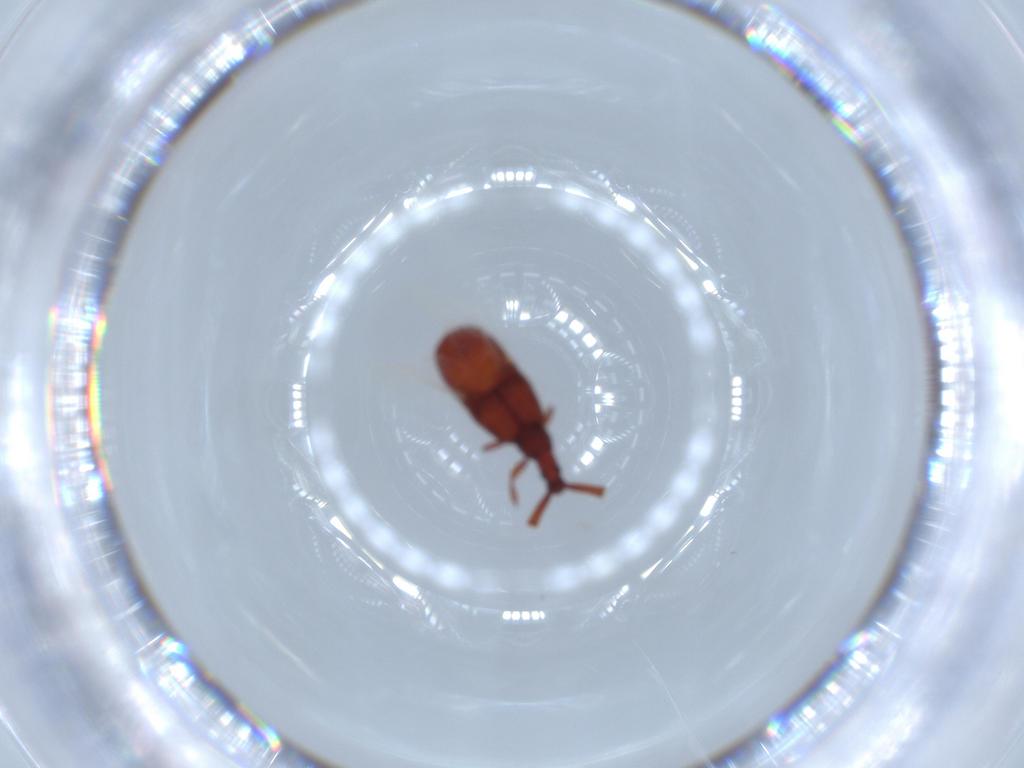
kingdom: Animalia
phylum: Arthropoda
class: Insecta
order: Coleoptera
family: Staphylinidae
